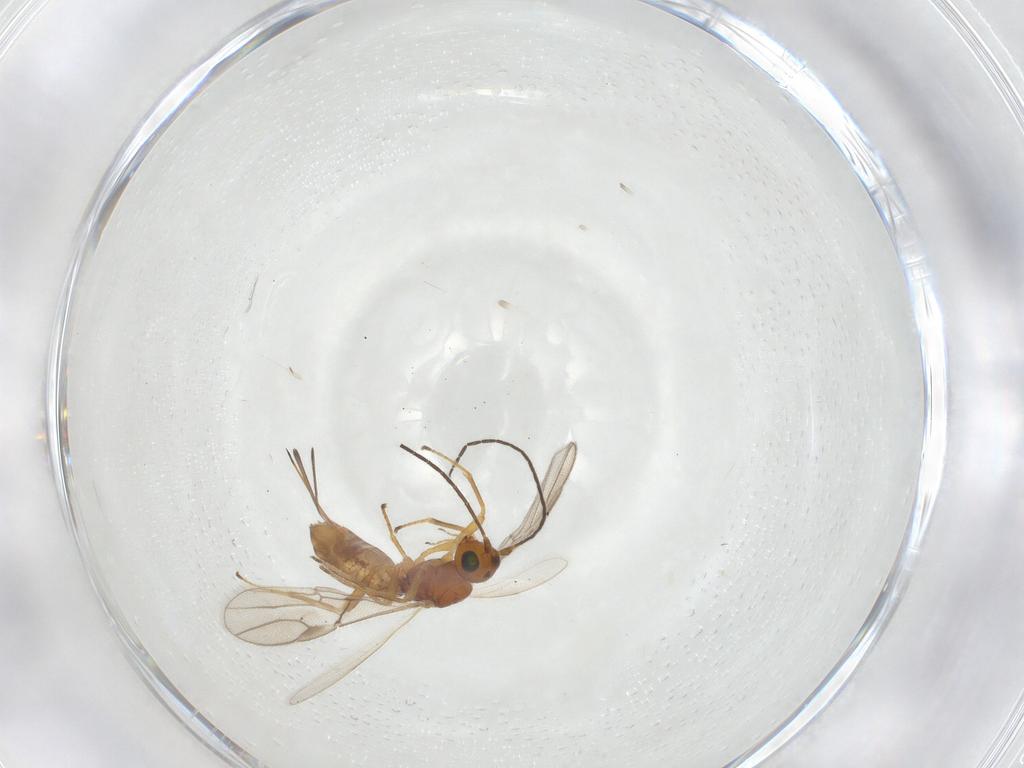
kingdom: Animalia
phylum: Arthropoda
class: Insecta
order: Hymenoptera
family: Braconidae
